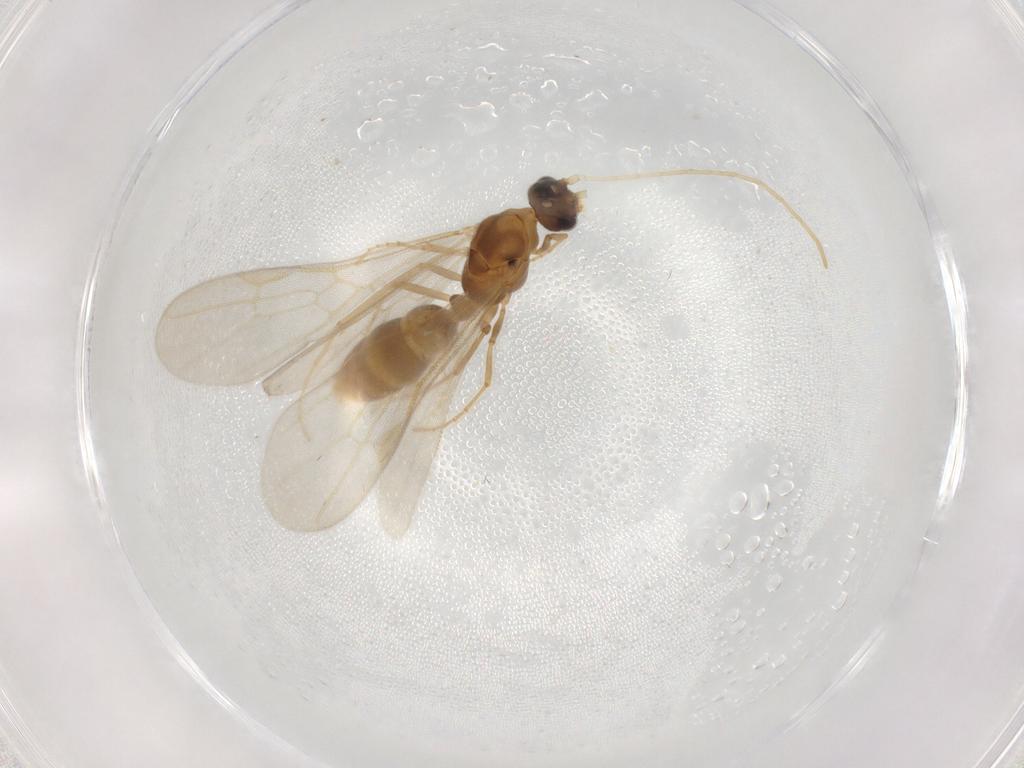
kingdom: Animalia
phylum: Arthropoda
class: Insecta
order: Hymenoptera
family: Formicidae
